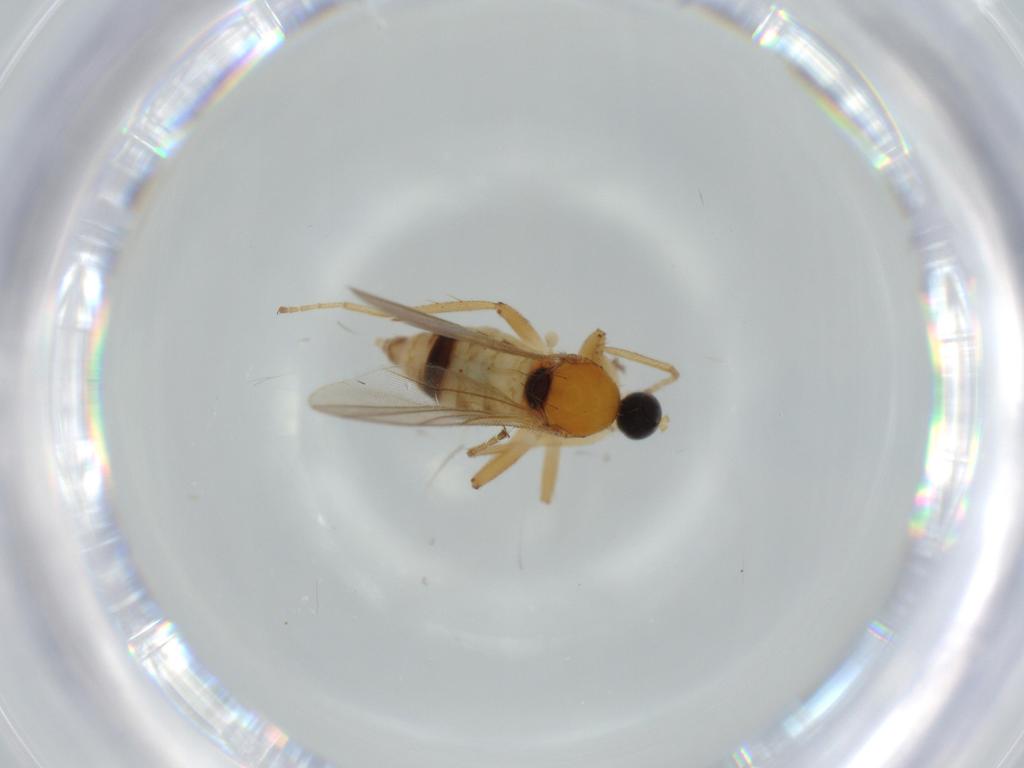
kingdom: Animalia
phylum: Arthropoda
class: Insecta
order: Diptera
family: Hybotidae
